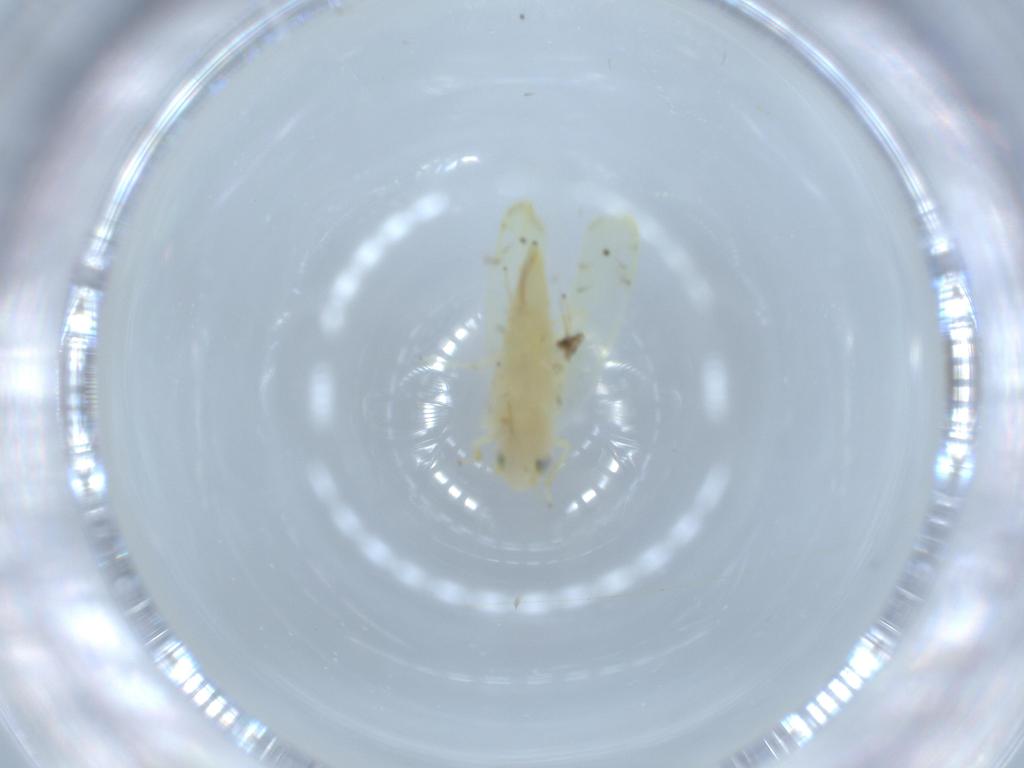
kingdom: Animalia
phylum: Arthropoda
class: Insecta
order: Hemiptera
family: Cicadellidae
